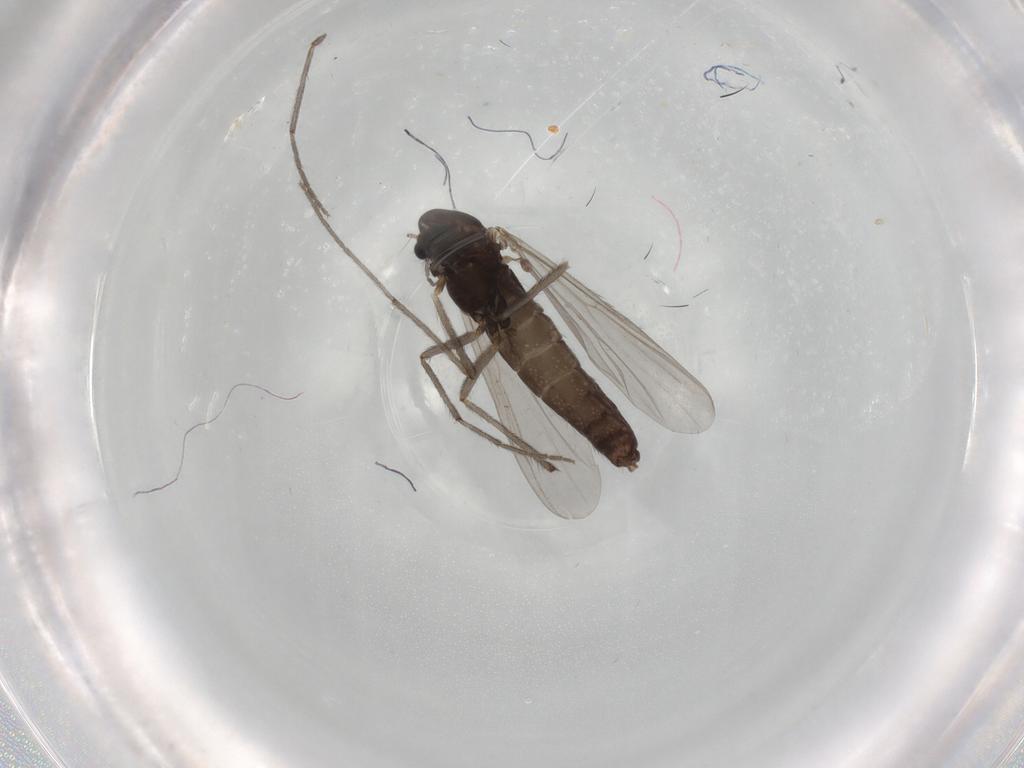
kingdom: Animalia
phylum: Arthropoda
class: Insecta
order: Diptera
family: Chironomidae
